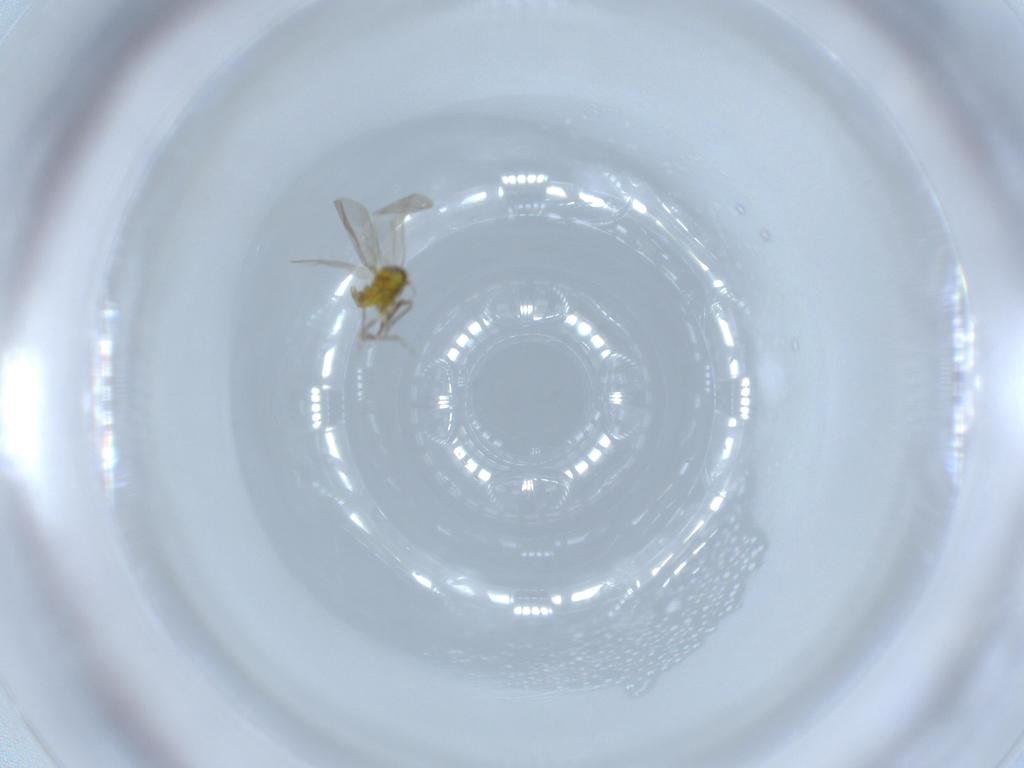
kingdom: Animalia
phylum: Arthropoda
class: Insecta
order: Hemiptera
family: Aleyrodidae
